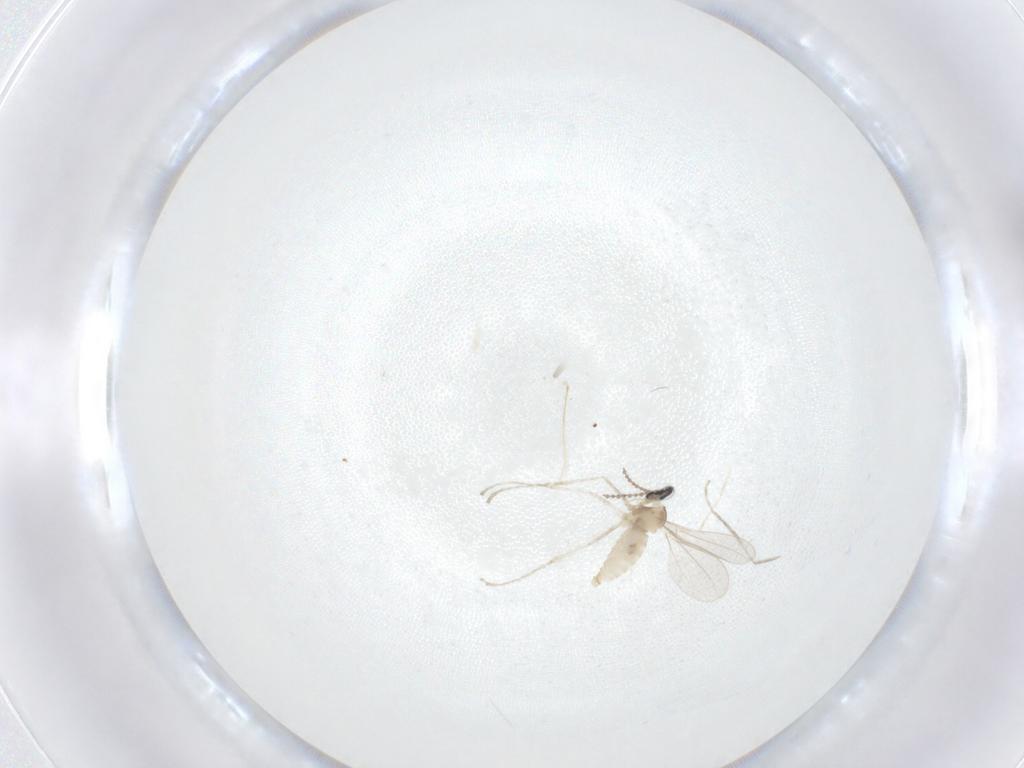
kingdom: Animalia
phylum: Arthropoda
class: Insecta
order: Diptera
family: Cecidomyiidae
